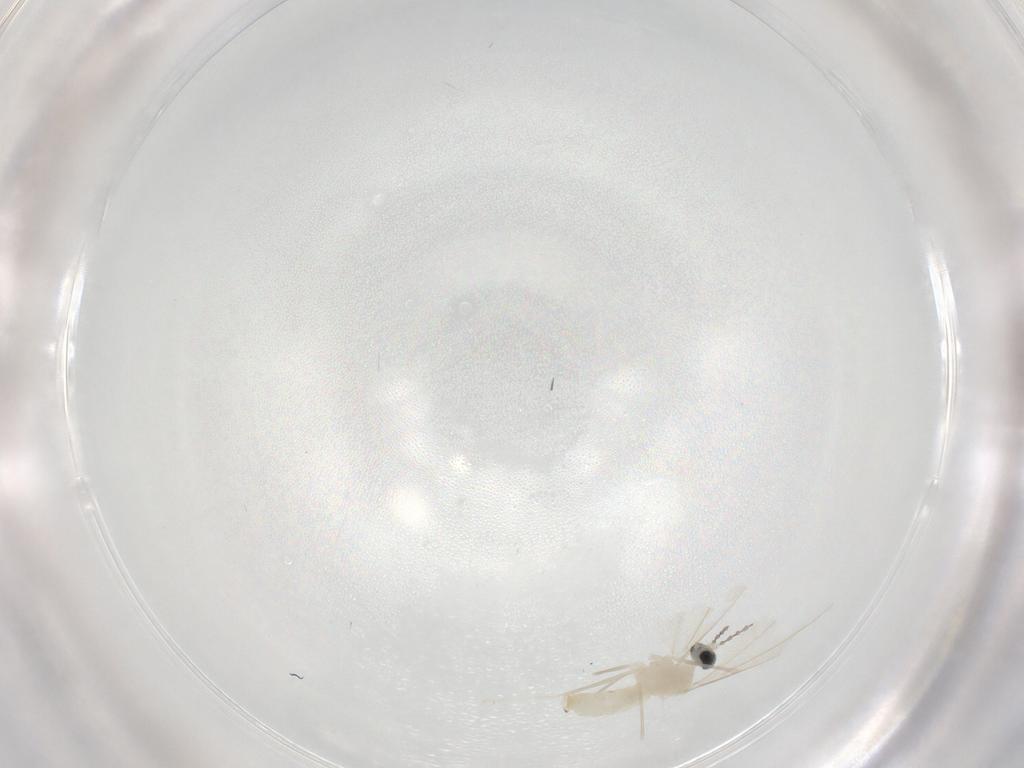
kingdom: Animalia
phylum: Arthropoda
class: Insecta
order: Diptera
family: Cecidomyiidae
